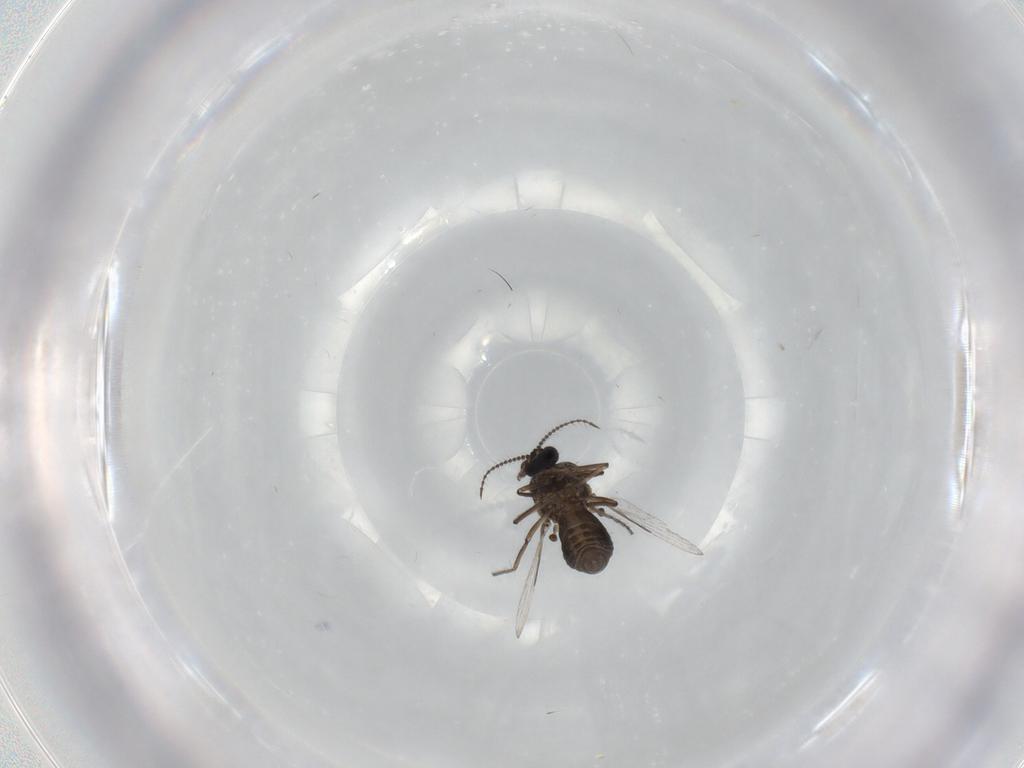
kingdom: Animalia
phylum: Arthropoda
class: Insecta
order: Diptera
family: Ceratopogonidae
